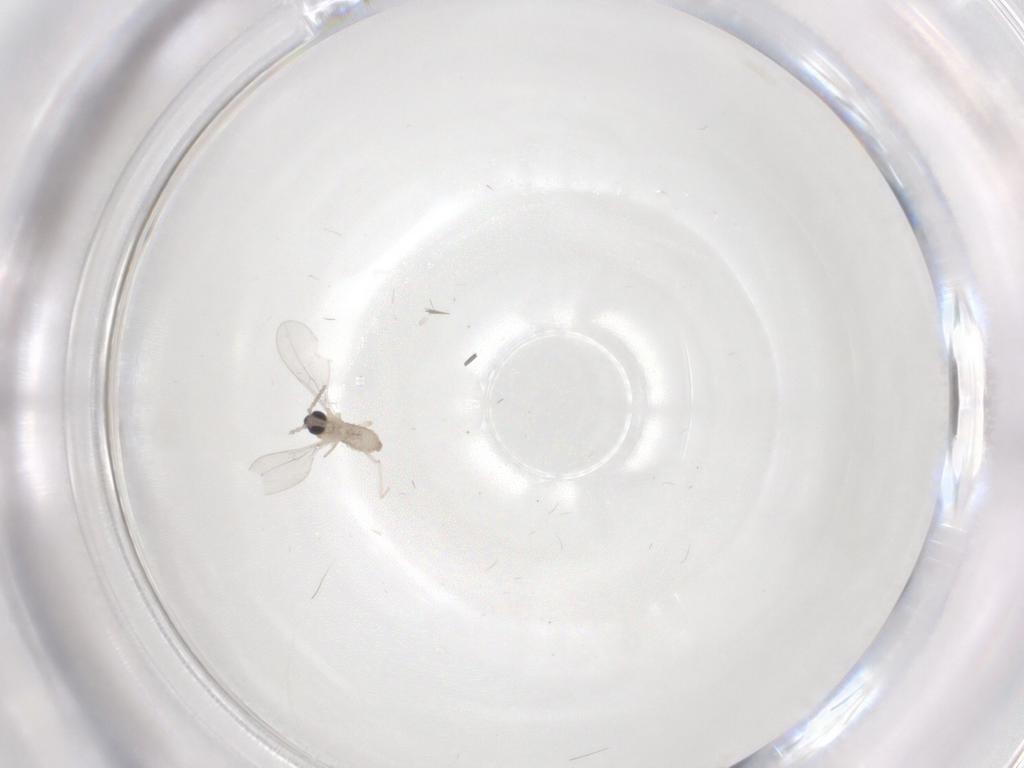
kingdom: Animalia
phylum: Arthropoda
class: Insecta
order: Diptera
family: Cecidomyiidae
